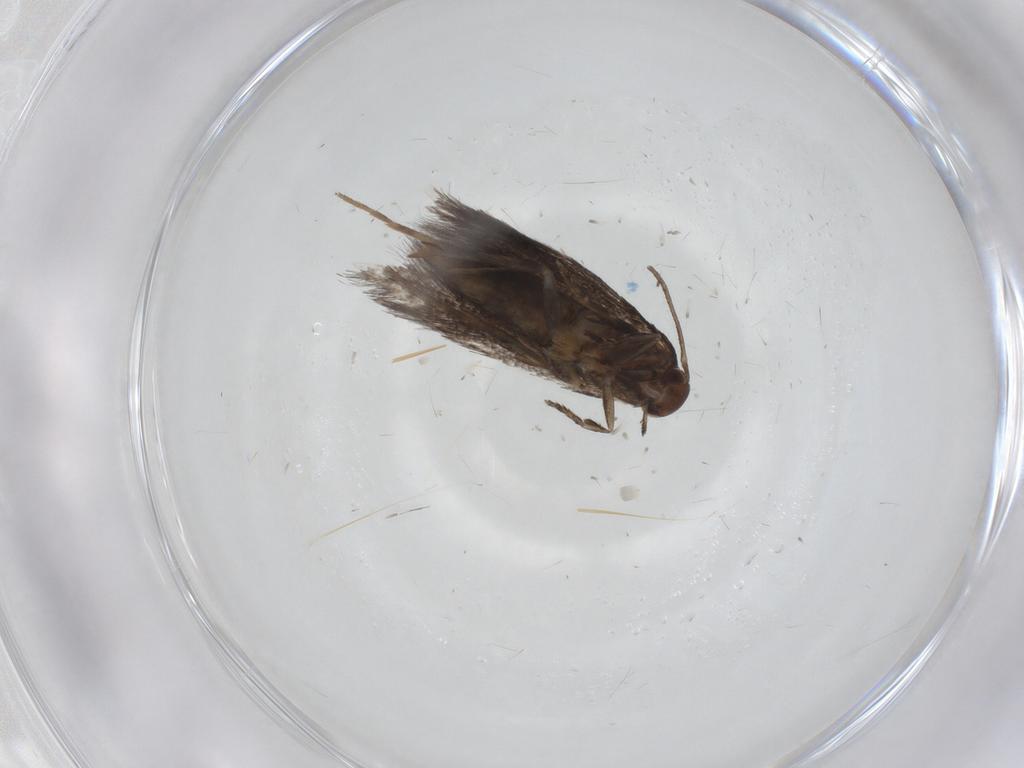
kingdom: Animalia
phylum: Arthropoda
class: Insecta
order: Lepidoptera
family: Elachistidae
